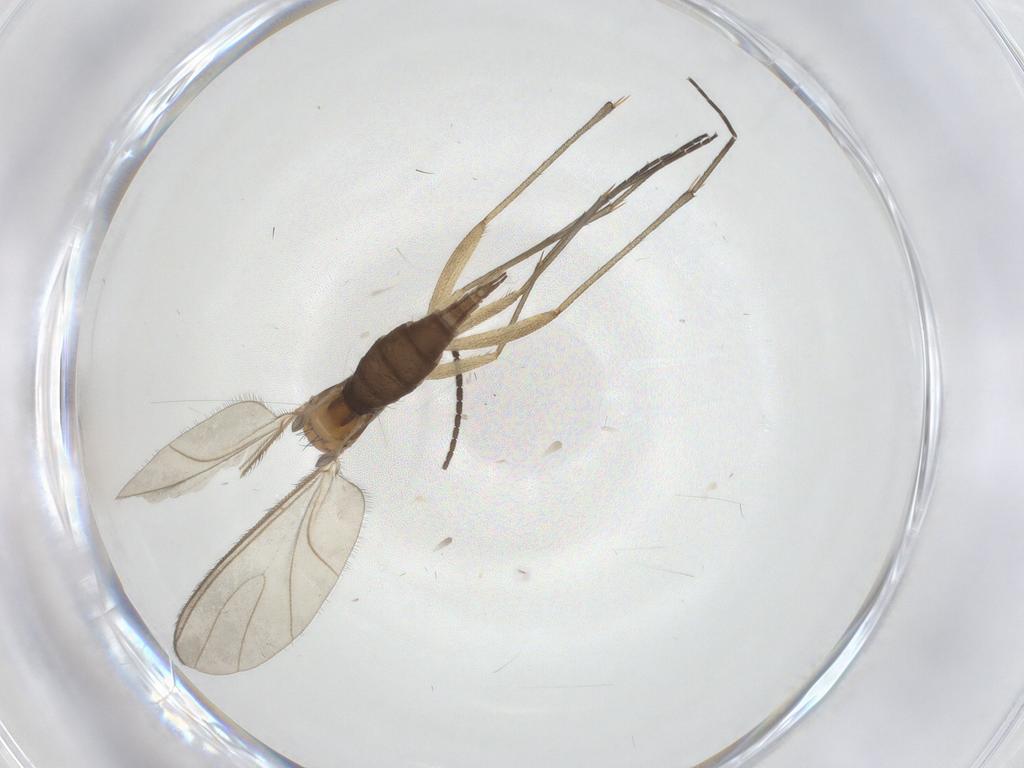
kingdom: Animalia
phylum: Arthropoda
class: Insecta
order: Diptera
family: Sciaridae
